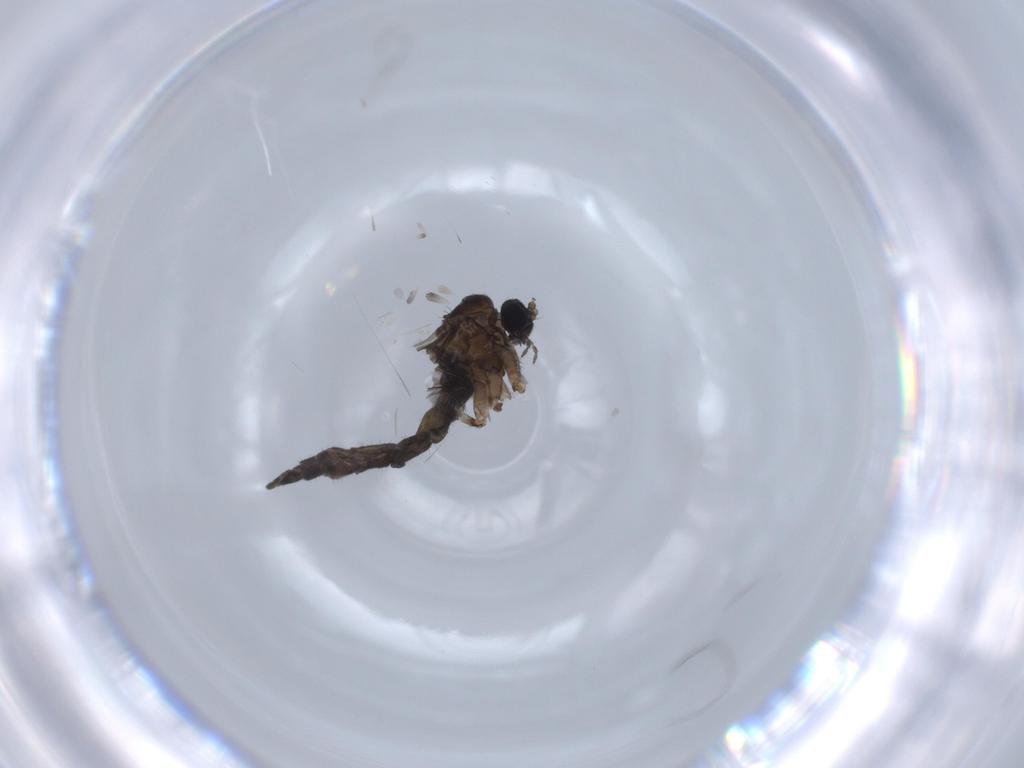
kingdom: Animalia
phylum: Arthropoda
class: Insecta
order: Diptera
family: Sciaridae
